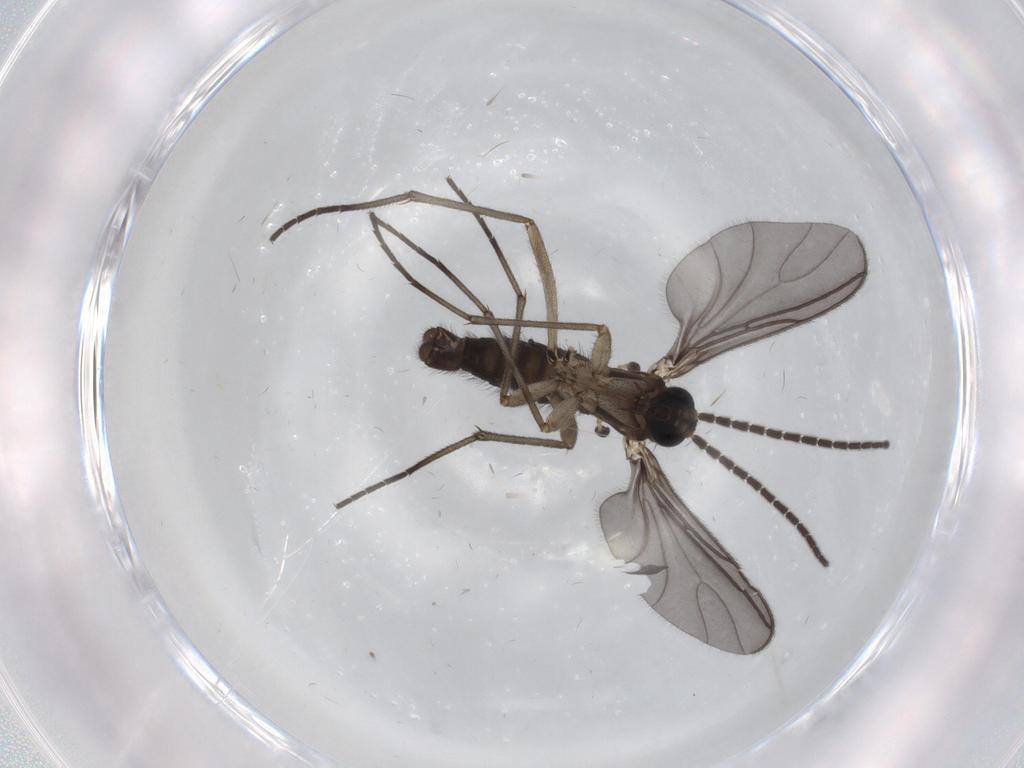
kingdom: Animalia
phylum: Arthropoda
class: Insecta
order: Diptera
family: Sciaridae
